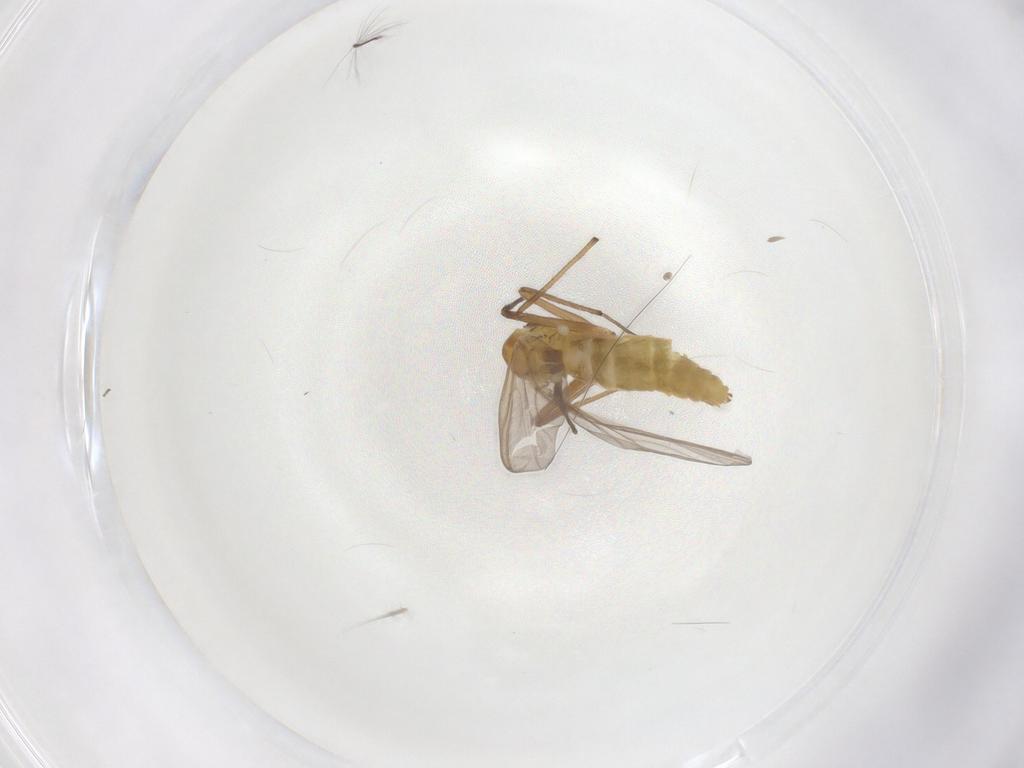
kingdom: Animalia
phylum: Arthropoda
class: Insecta
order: Diptera
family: Chironomidae
